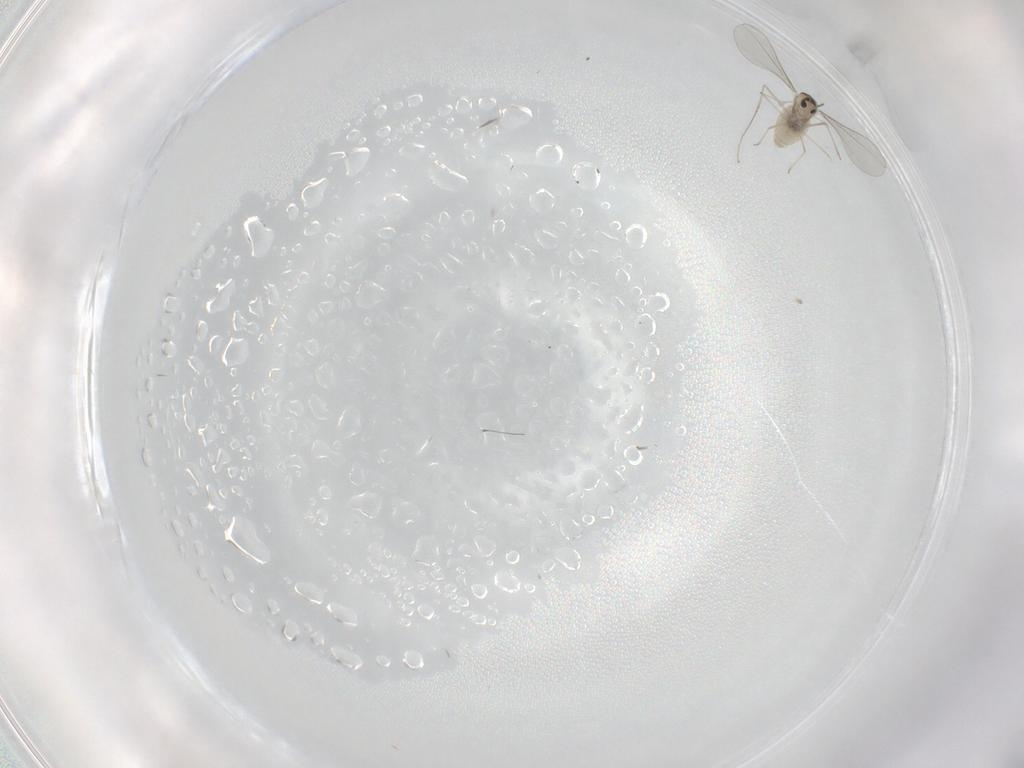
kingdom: Animalia
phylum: Arthropoda
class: Insecta
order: Diptera
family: Cecidomyiidae
